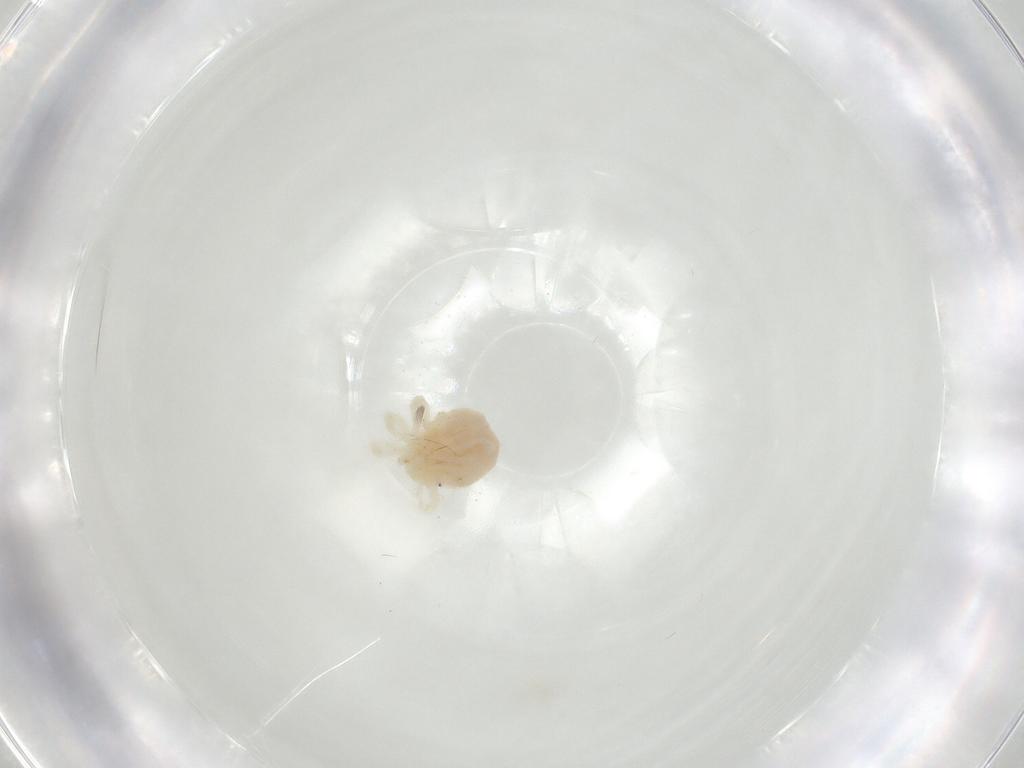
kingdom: Animalia
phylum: Arthropoda
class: Arachnida
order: Trombidiformes
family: Anystidae
